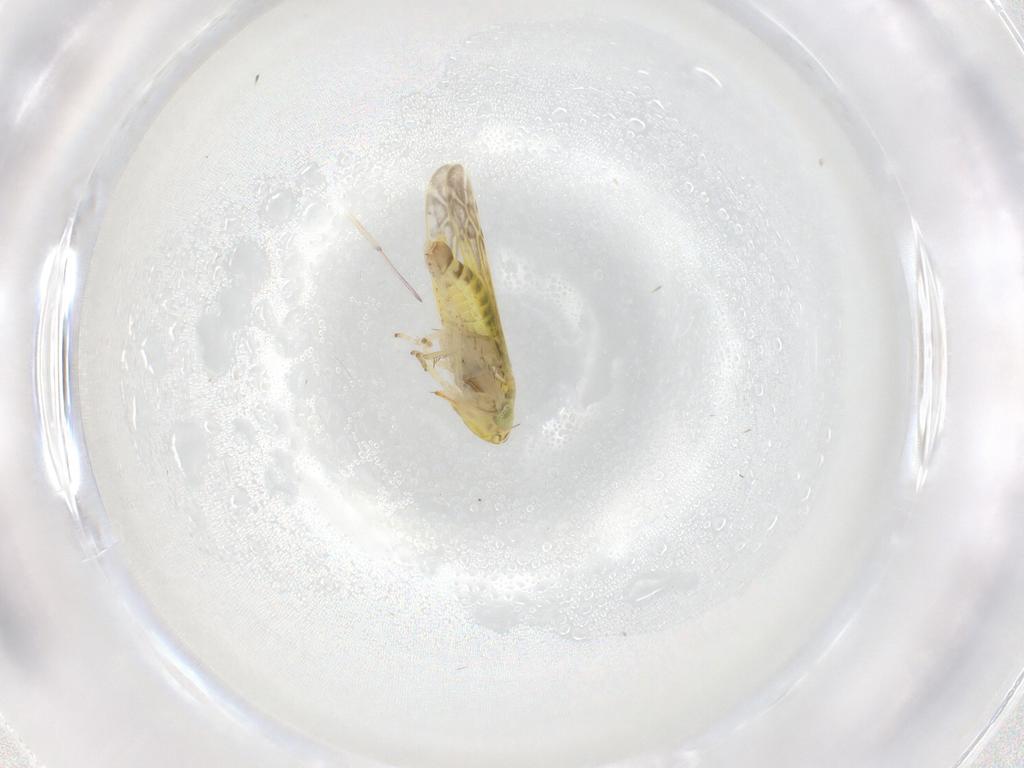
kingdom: Animalia
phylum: Arthropoda
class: Insecta
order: Hemiptera
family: Cicadellidae
